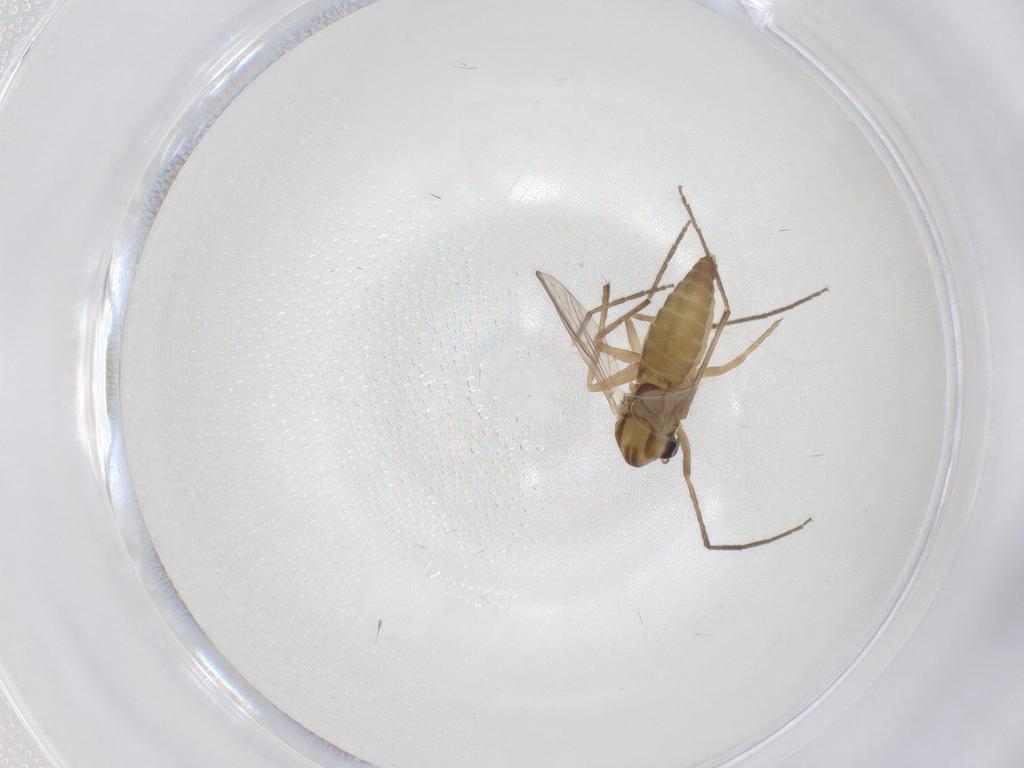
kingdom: Animalia
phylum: Arthropoda
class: Insecta
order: Diptera
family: Chironomidae
